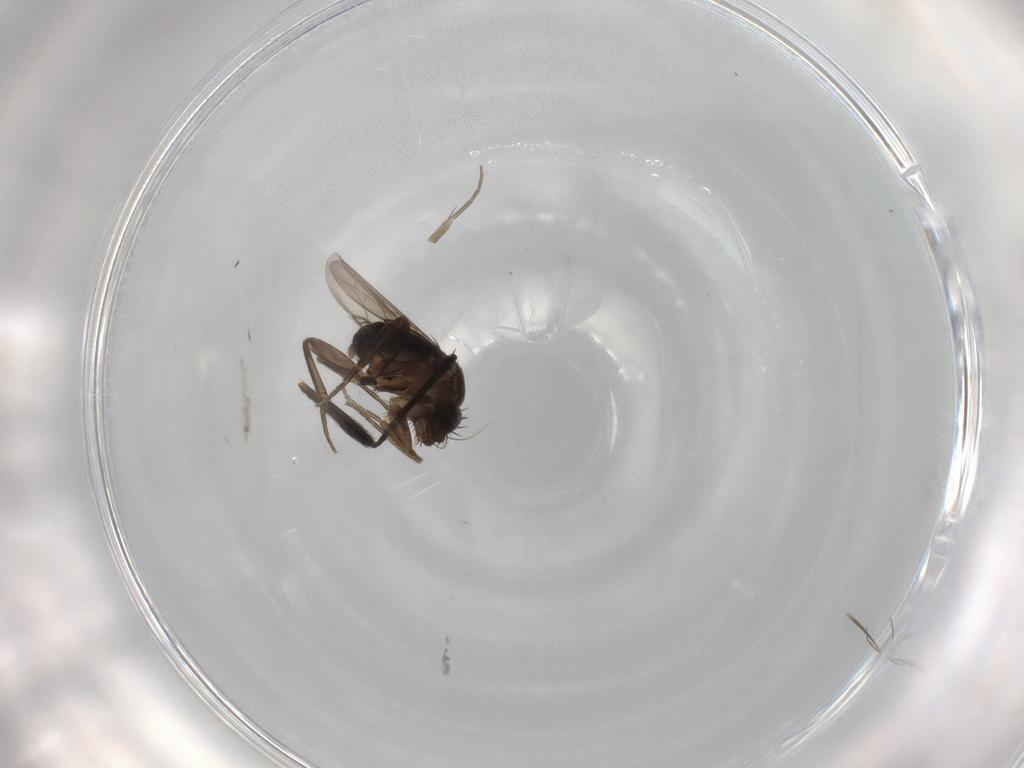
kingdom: Animalia
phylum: Arthropoda
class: Insecta
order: Diptera
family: Phoridae
